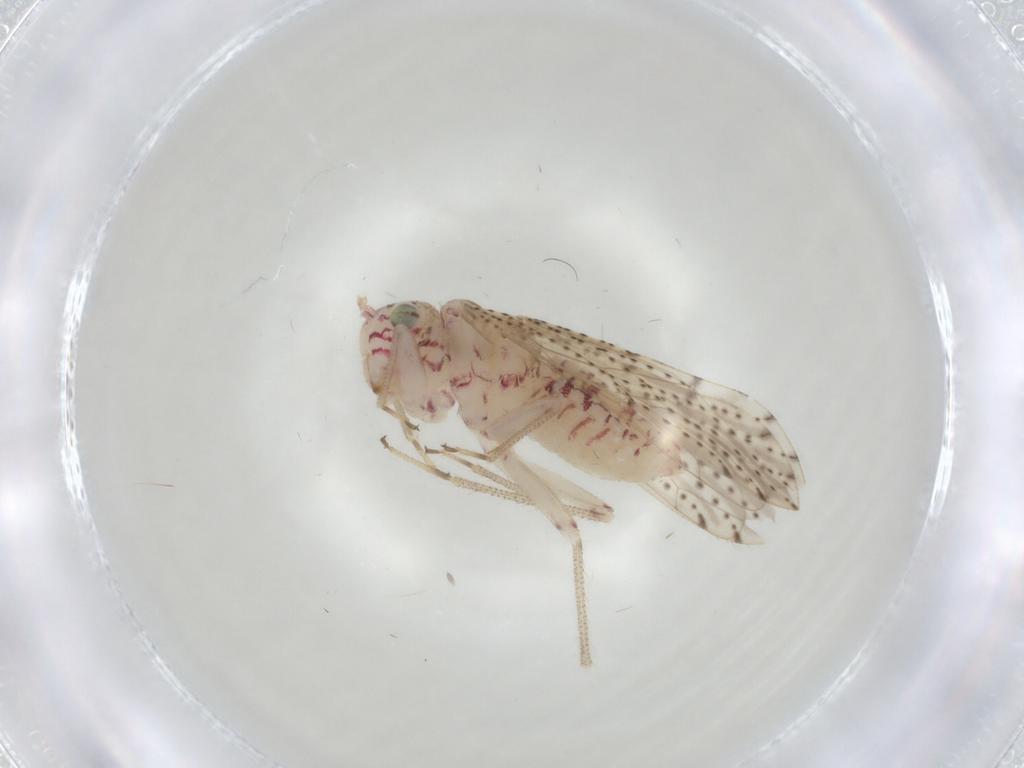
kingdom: Animalia
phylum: Arthropoda
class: Insecta
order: Psocodea
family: Philotarsidae
